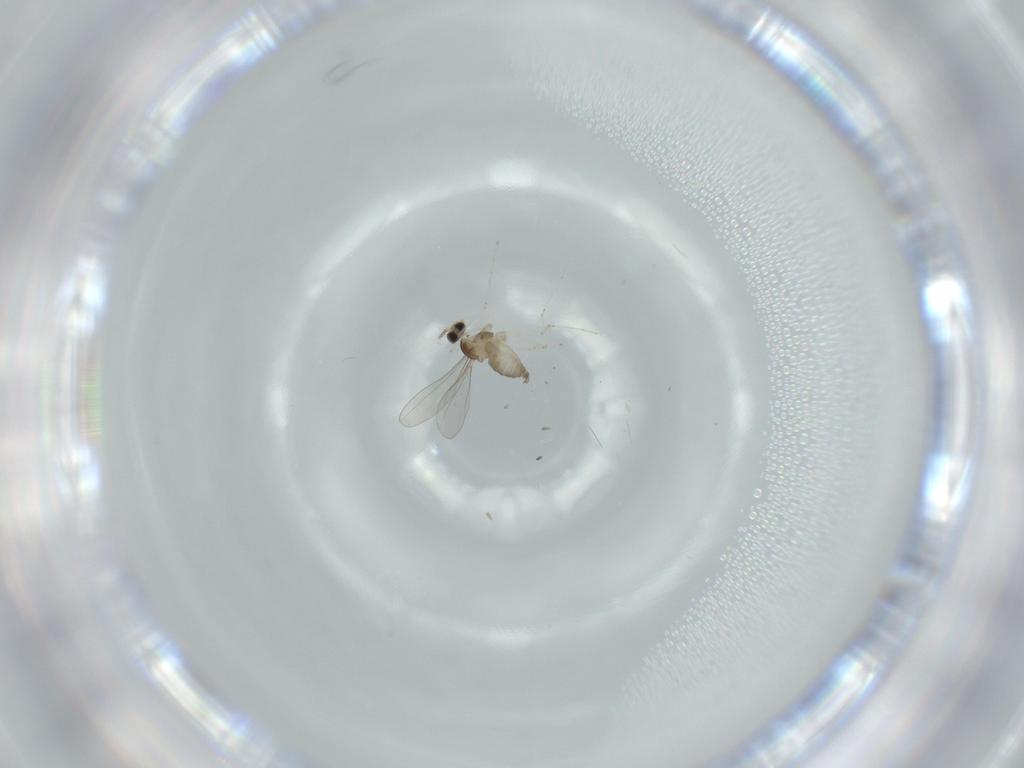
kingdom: Animalia
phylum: Arthropoda
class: Insecta
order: Diptera
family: Cecidomyiidae
